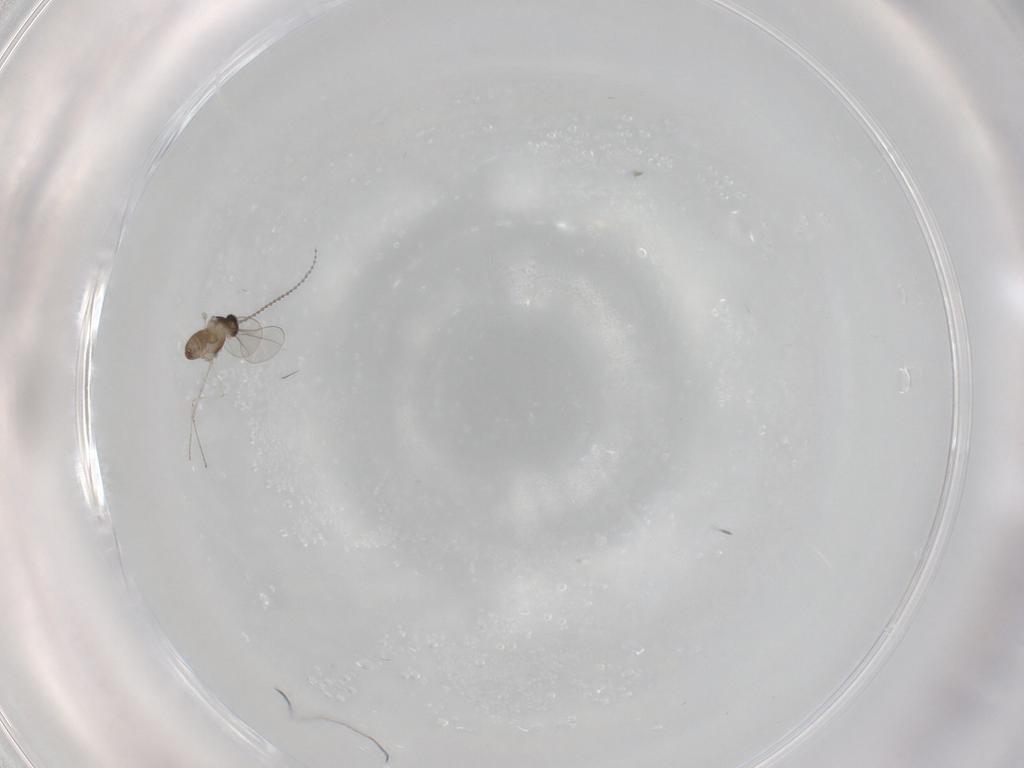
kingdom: Animalia
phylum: Arthropoda
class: Insecta
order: Diptera
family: Cecidomyiidae
